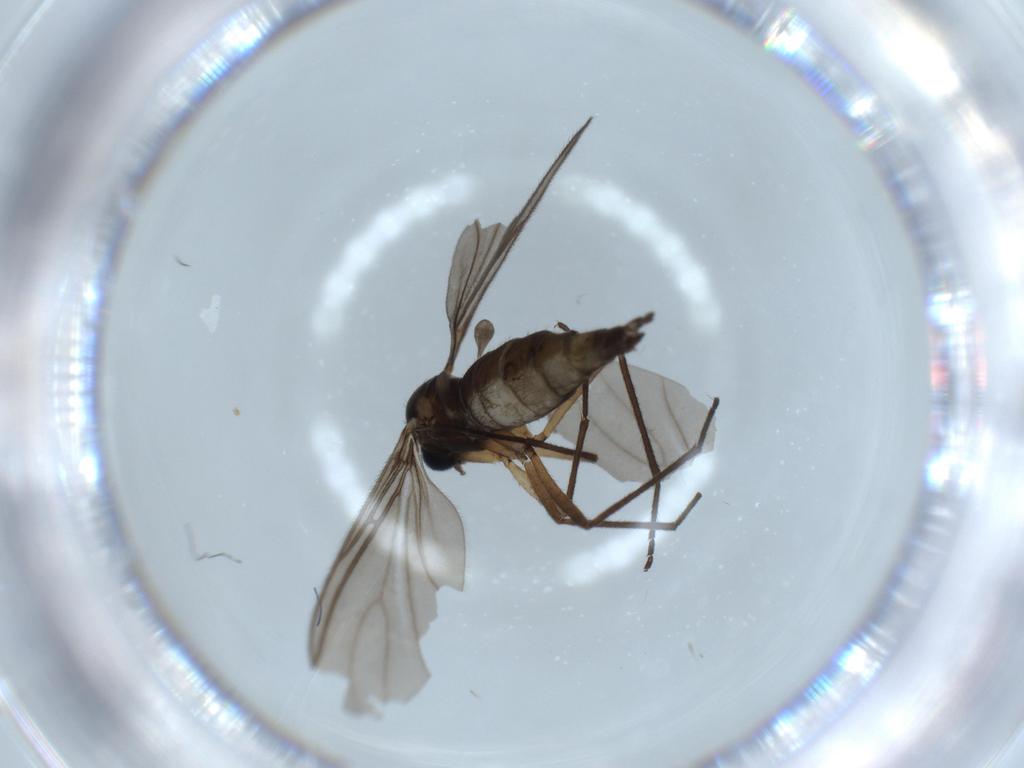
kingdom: Animalia
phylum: Arthropoda
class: Insecta
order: Diptera
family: Sciaridae
